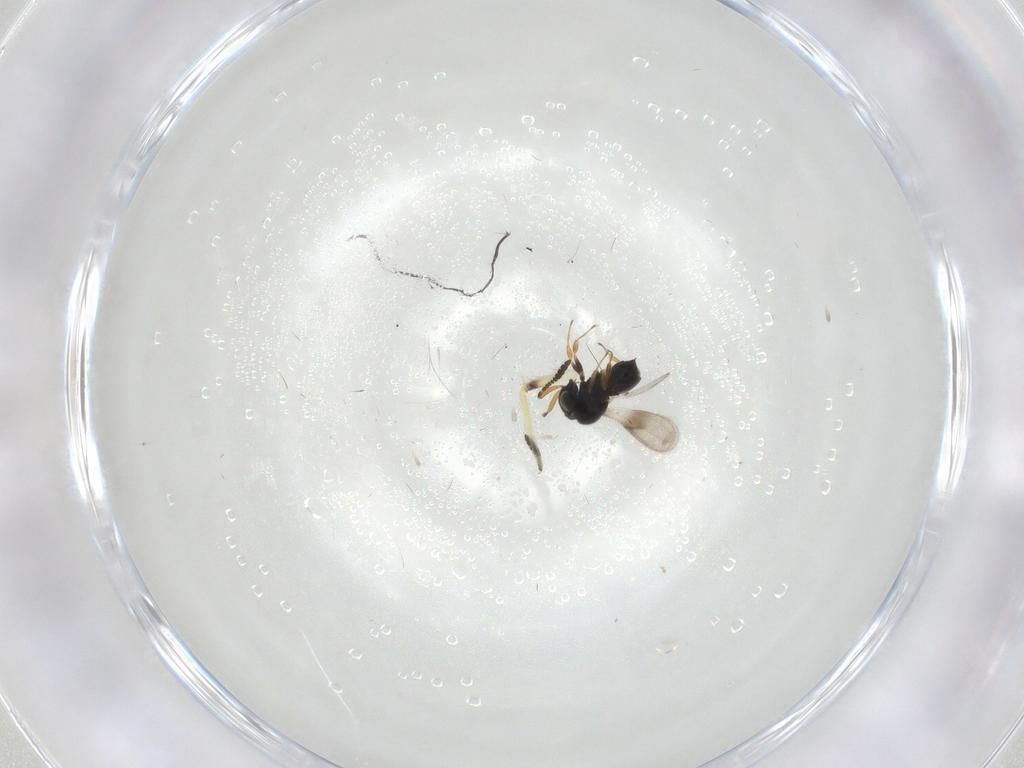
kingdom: Animalia
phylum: Arthropoda
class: Insecta
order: Hymenoptera
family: Scelionidae
